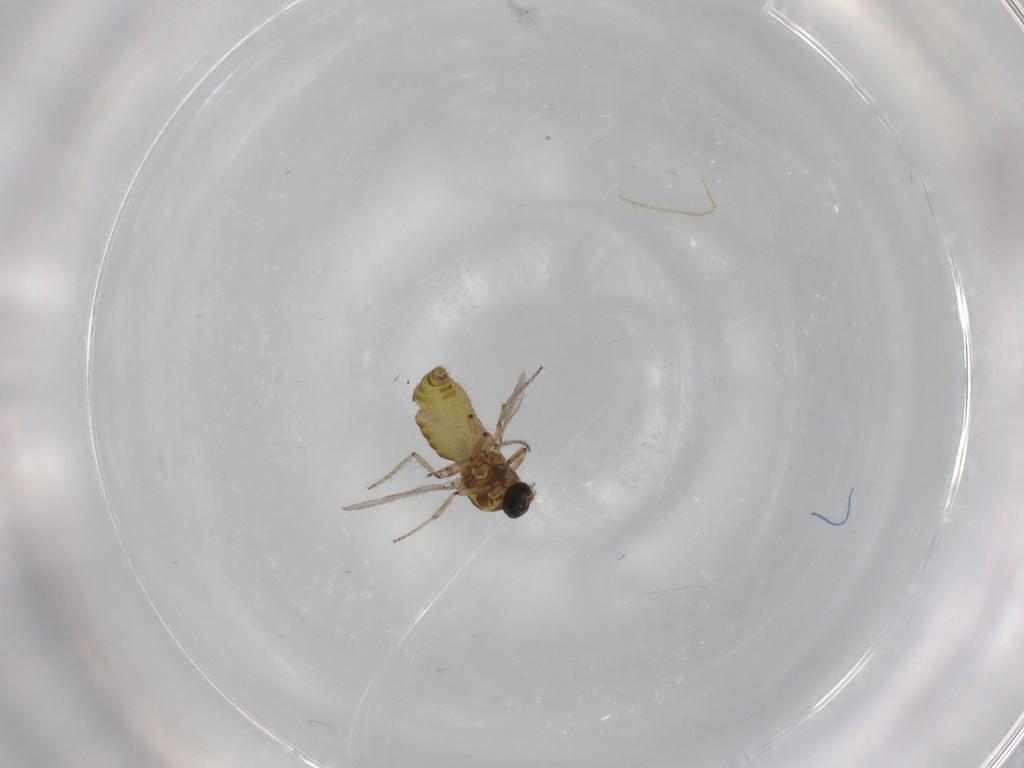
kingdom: Animalia
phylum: Arthropoda
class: Insecta
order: Diptera
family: Ceratopogonidae
